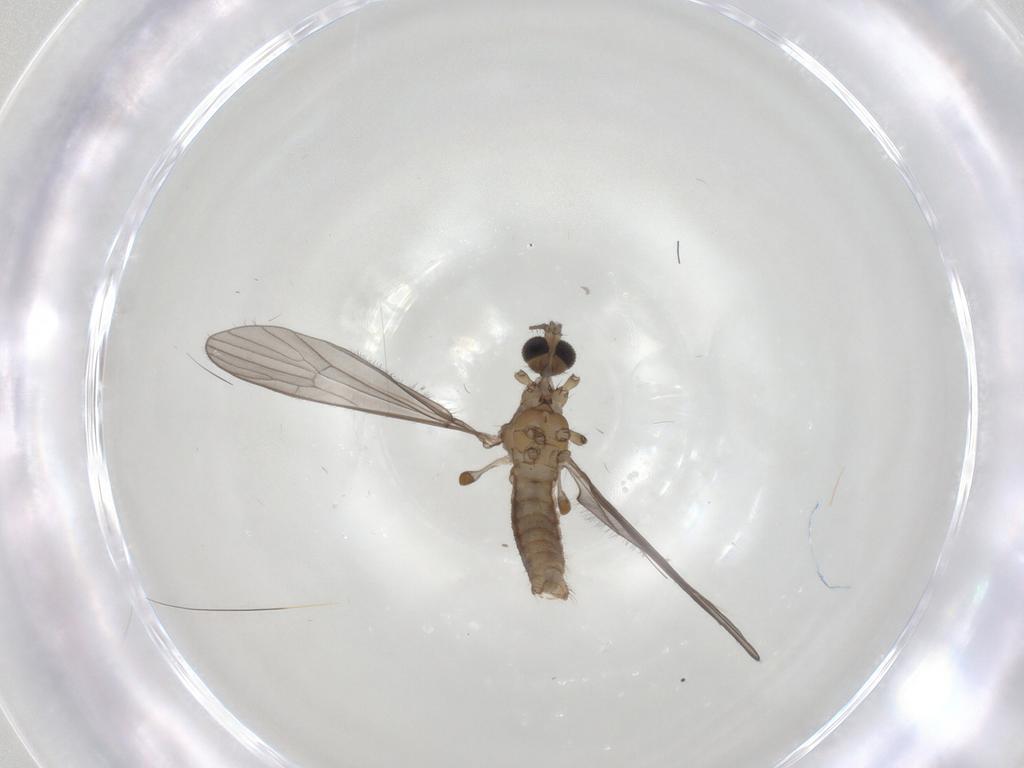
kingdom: Animalia
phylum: Arthropoda
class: Insecta
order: Diptera
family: Limoniidae
